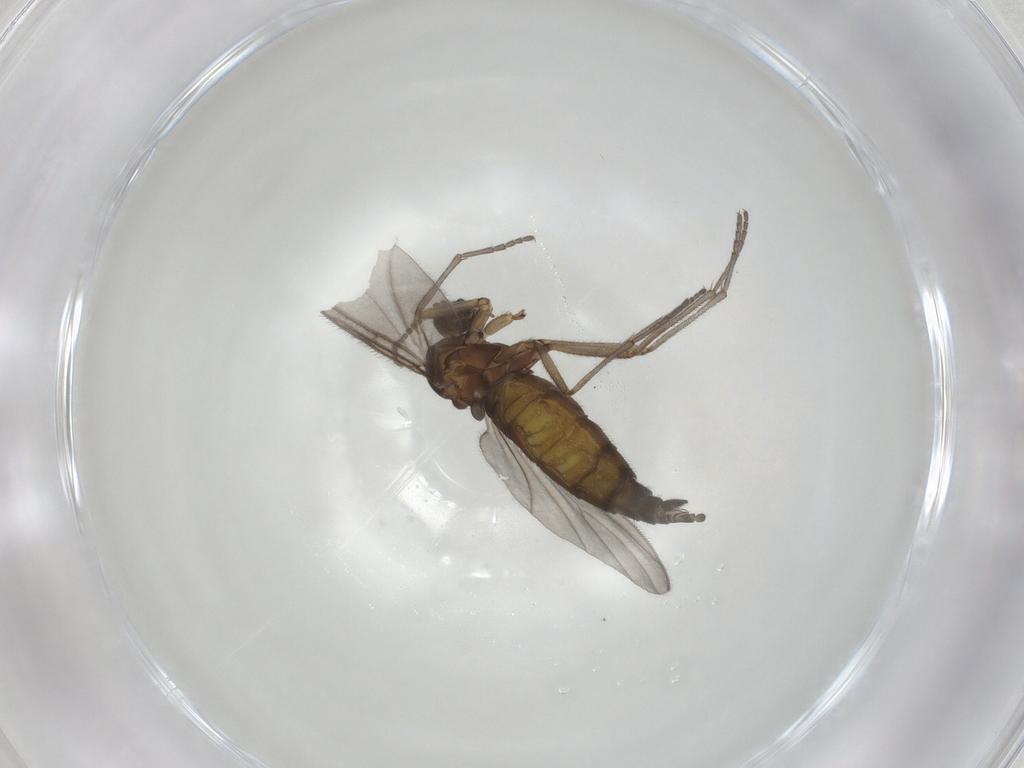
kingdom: Animalia
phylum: Arthropoda
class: Insecta
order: Diptera
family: Sciaridae
